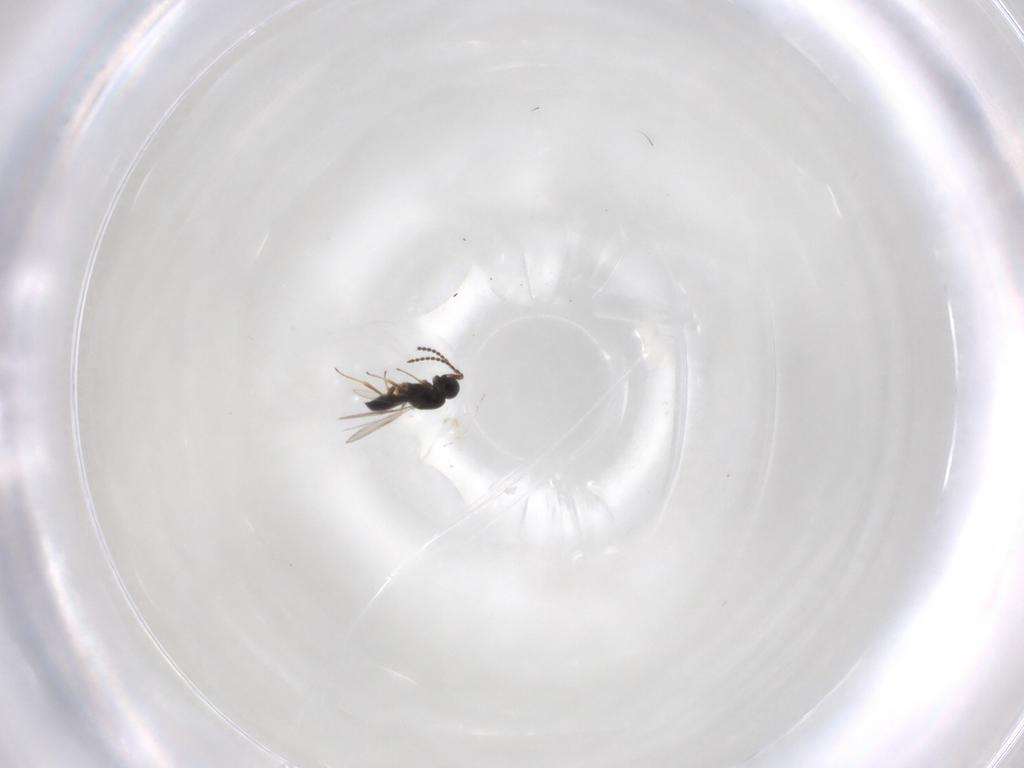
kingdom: Animalia
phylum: Arthropoda
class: Insecta
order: Hymenoptera
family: Scelionidae
